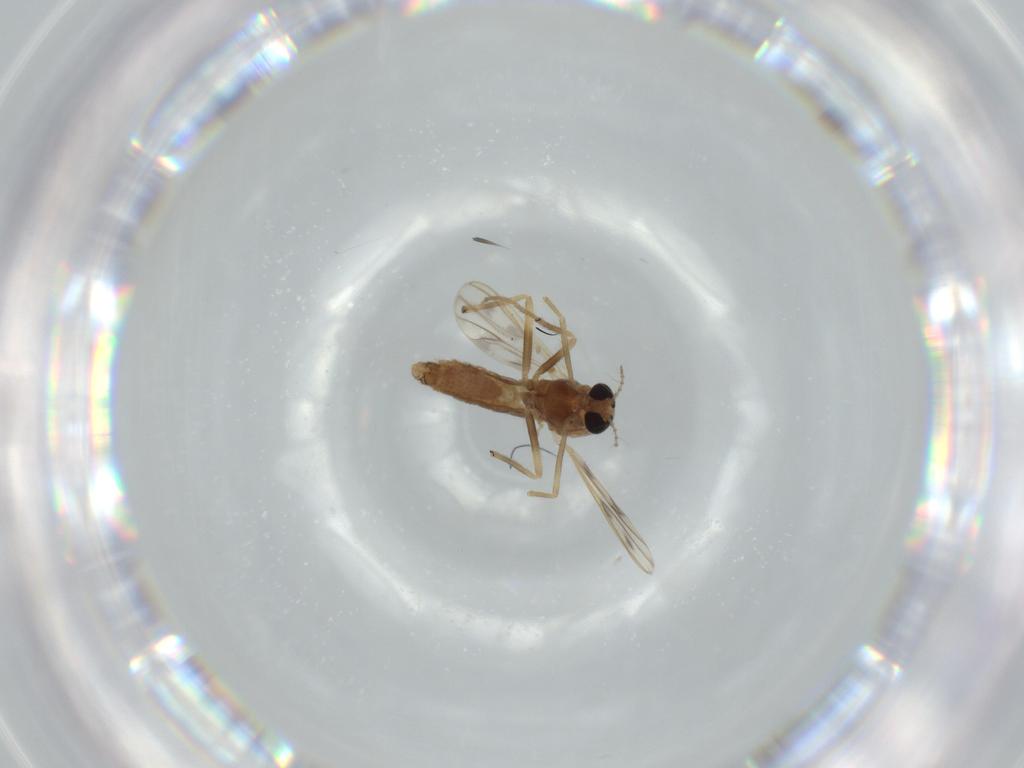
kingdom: Animalia
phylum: Arthropoda
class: Insecta
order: Diptera
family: Chironomidae
